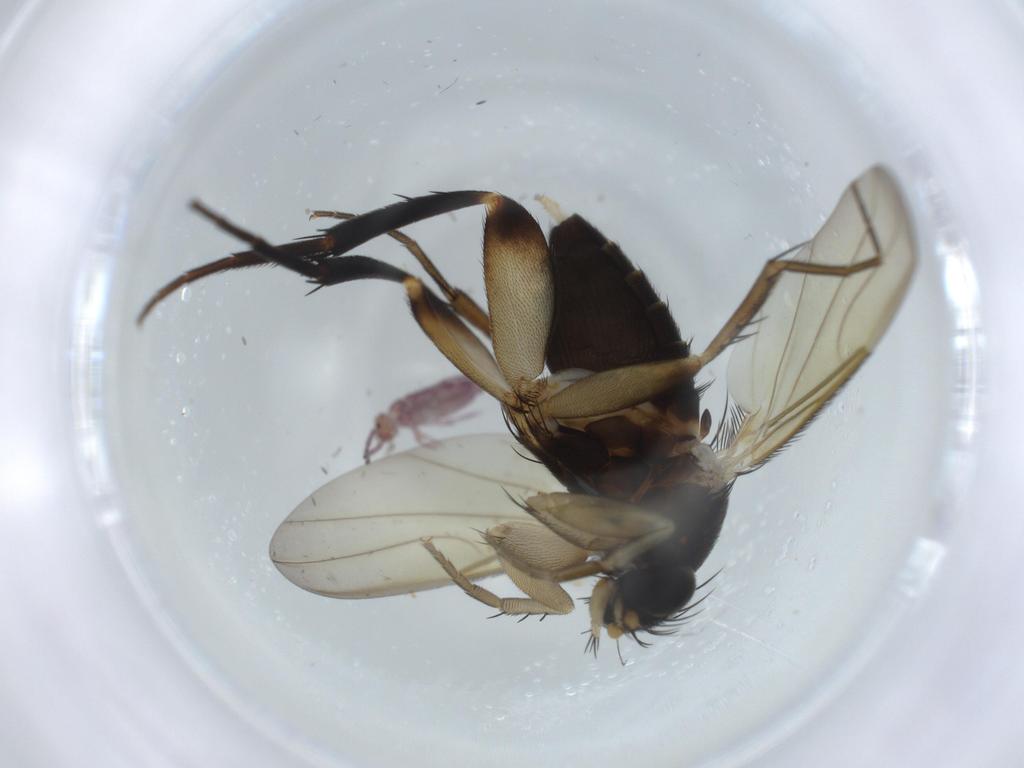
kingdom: Animalia
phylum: Arthropoda
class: Insecta
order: Diptera
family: Phoridae
